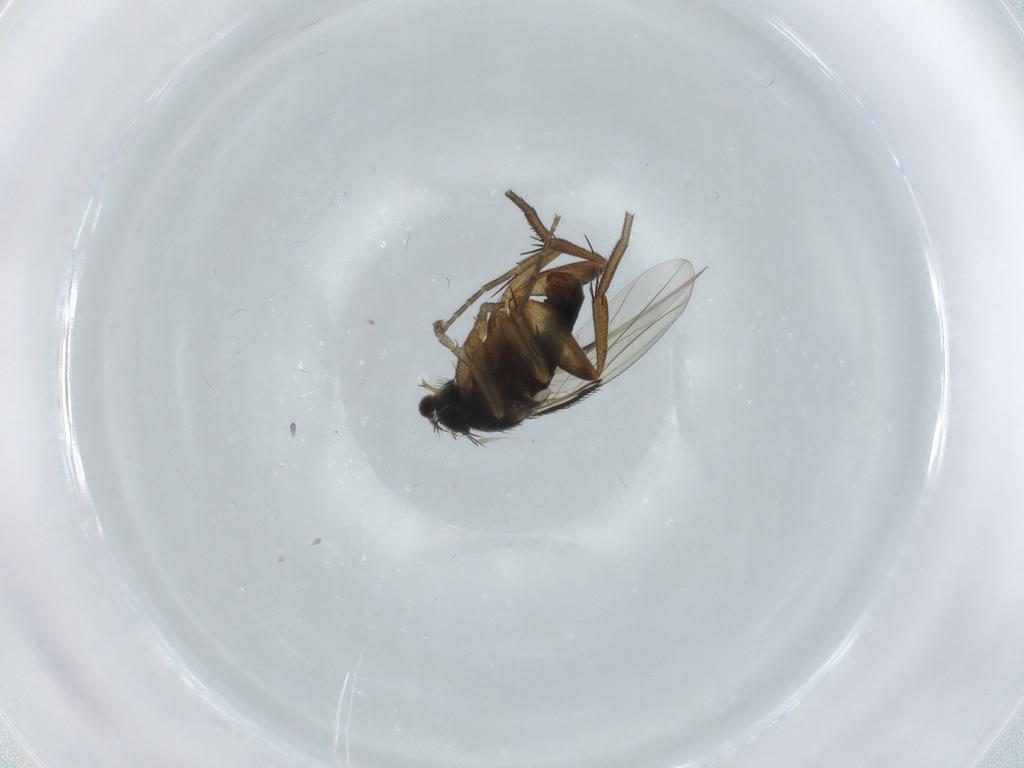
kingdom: Animalia
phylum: Arthropoda
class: Insecta
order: Diptera
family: Phoridae
